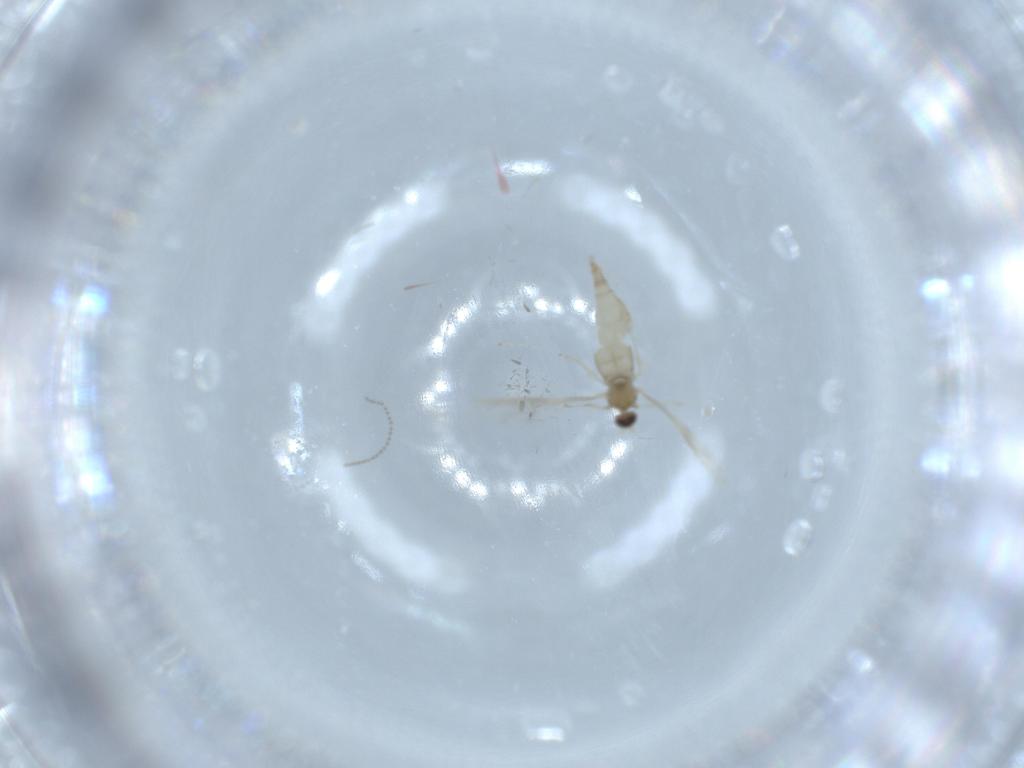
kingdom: Animalia
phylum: Arthropoda
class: Insecta
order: Diptera
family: Cecidomyiidae
